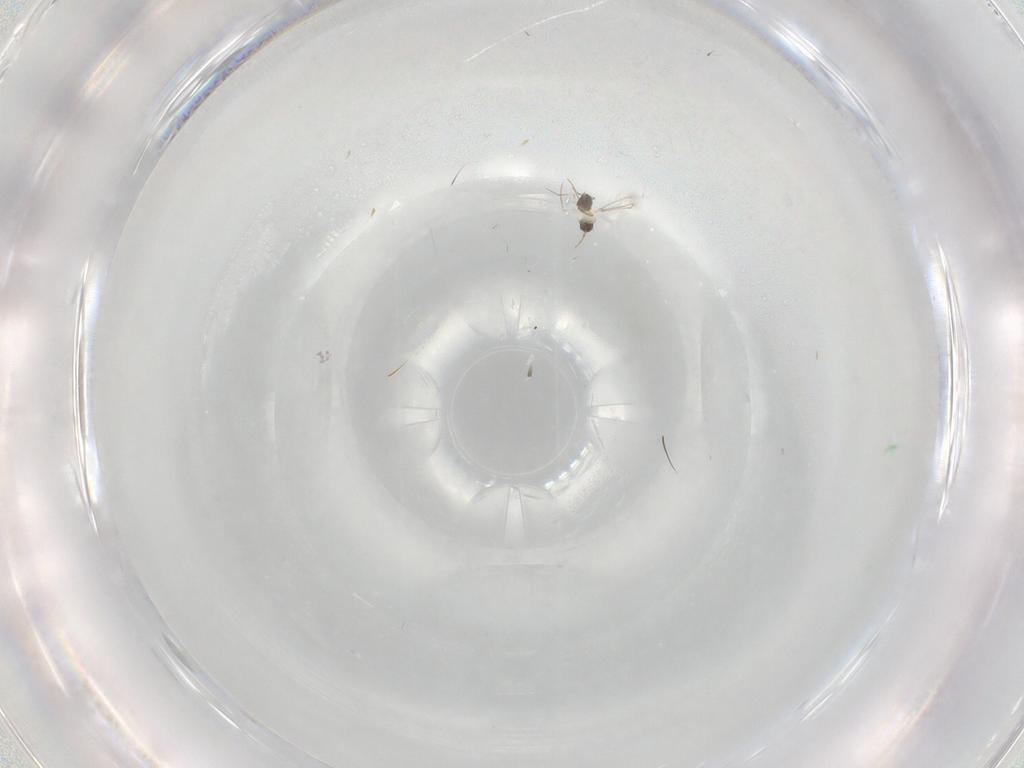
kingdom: Animalia
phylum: Arthropoda
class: Insecta
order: Hymenoptera
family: Mymaridae
